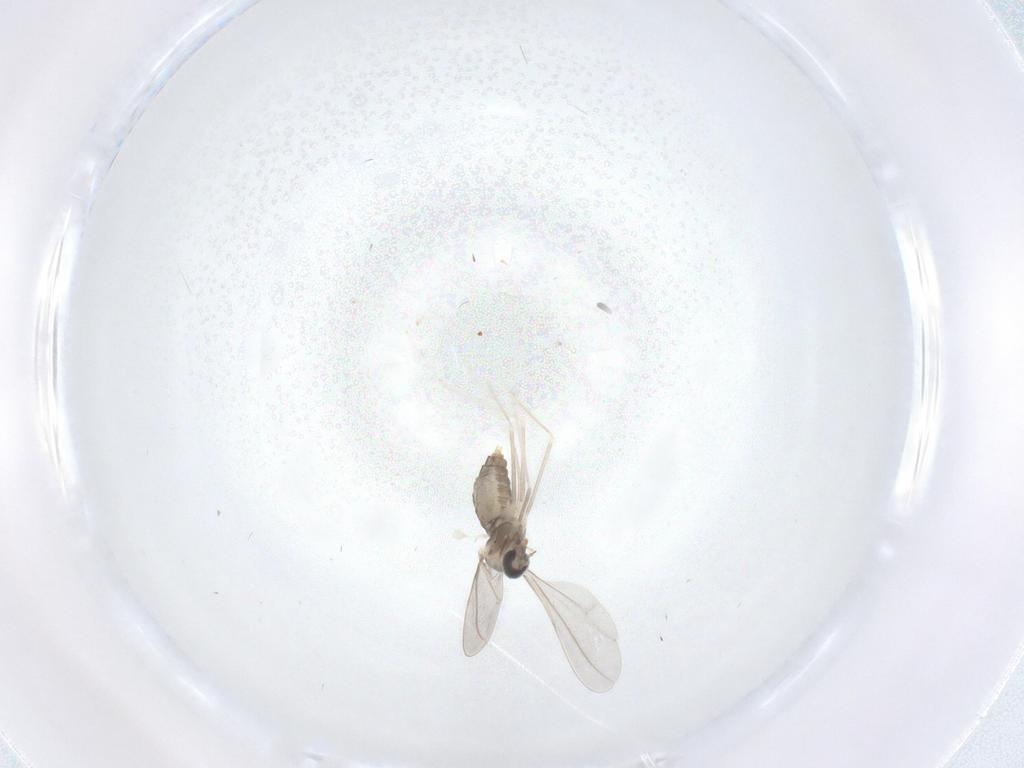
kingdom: Animalia
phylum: Arthropoda
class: Insecta
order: Diptera
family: Cecidomyiidae
